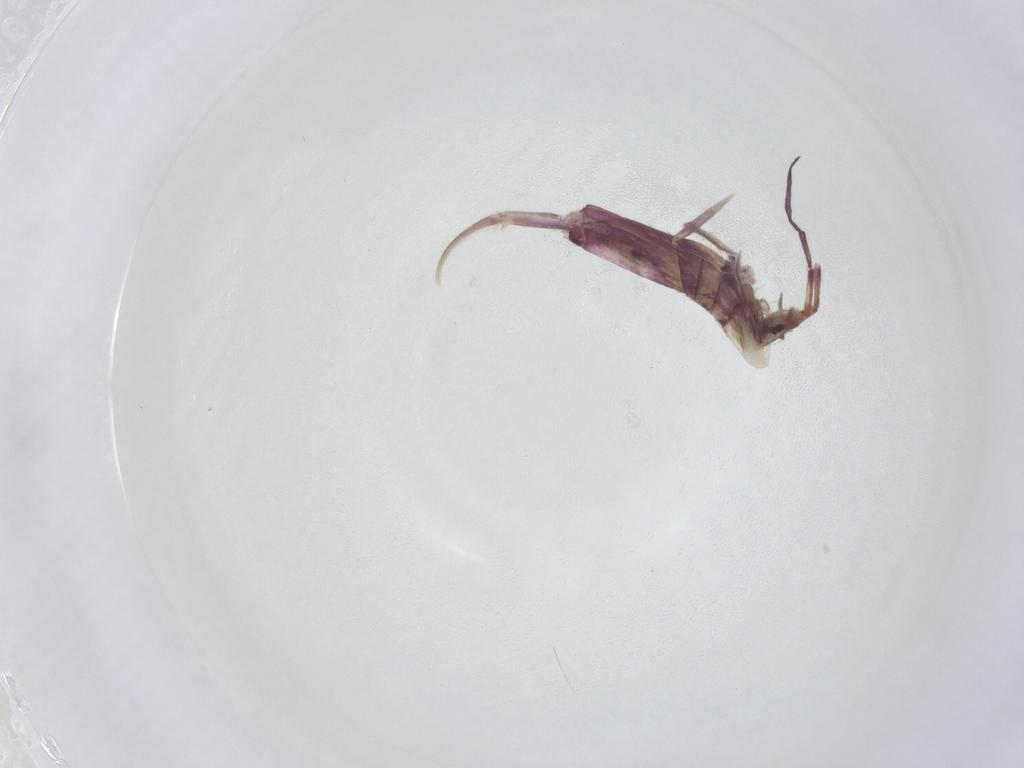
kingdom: Animalia
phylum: Arthropoda
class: Collembola
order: Entomobryomorpha
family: Entomobryidae
